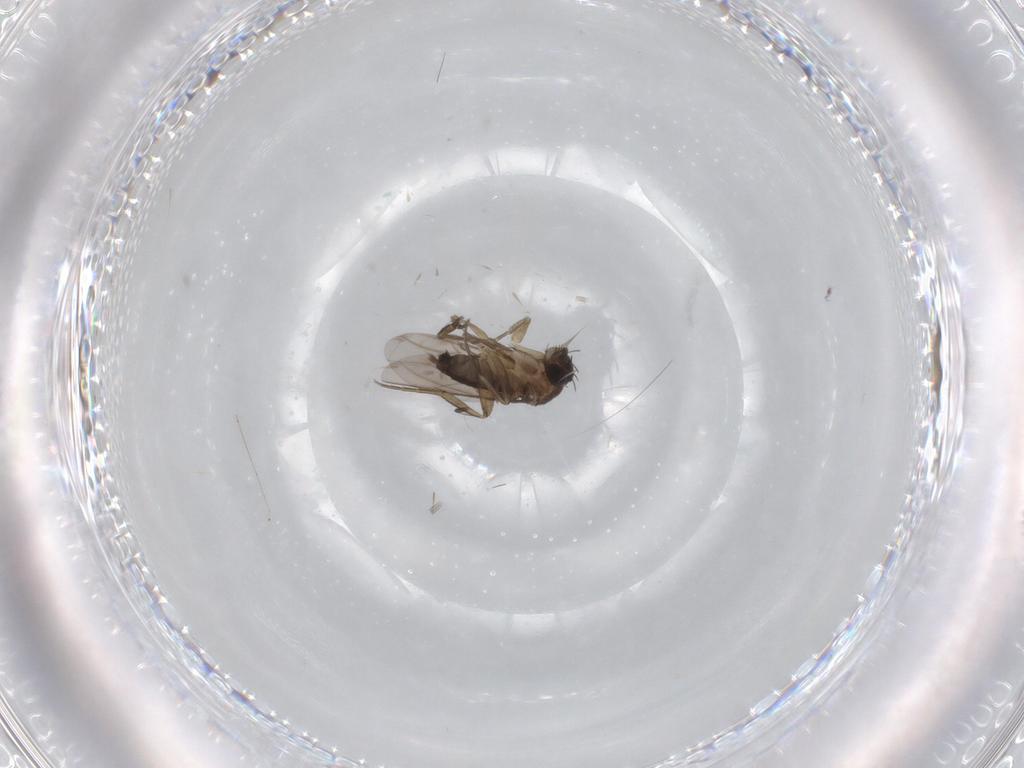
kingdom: Animalia
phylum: Arthropoda
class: Insecta
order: Diptera
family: Phoridae
